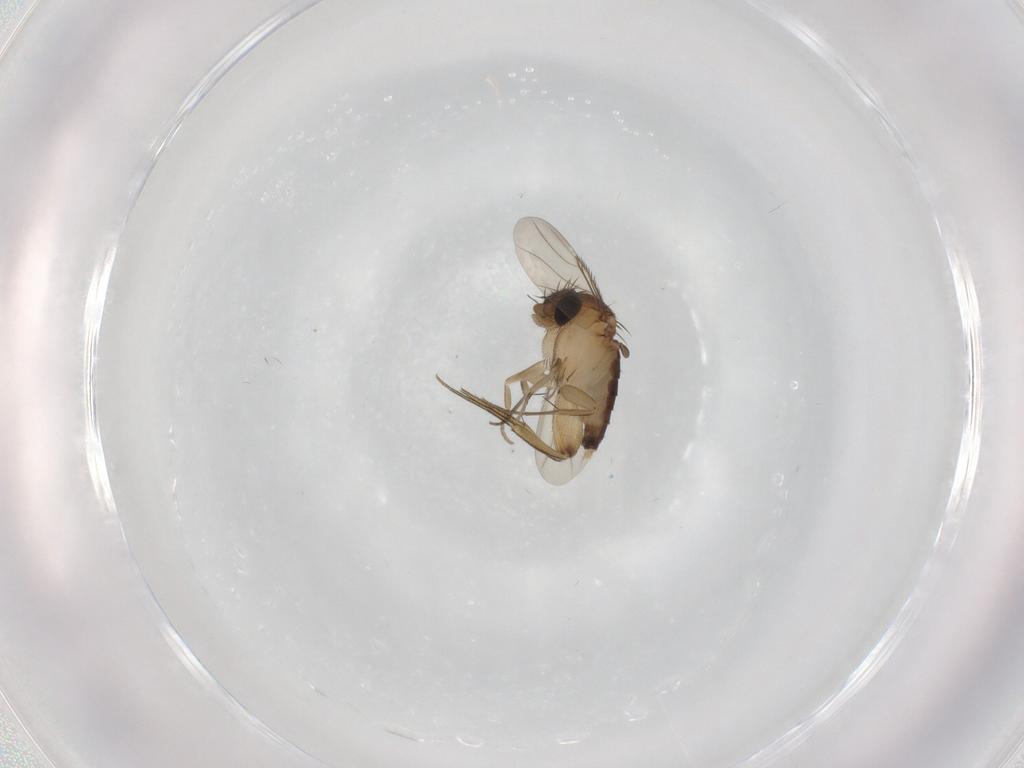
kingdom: Animalia
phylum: Arthropoda
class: Insecta
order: Diptera
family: Phoridae
